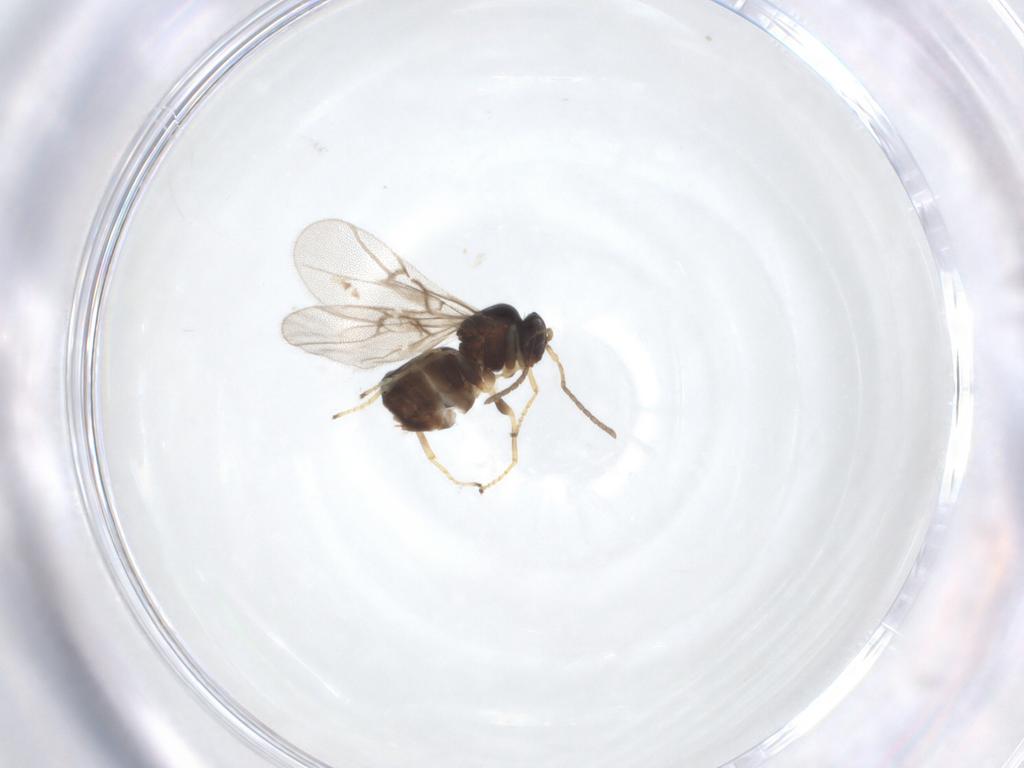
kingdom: Animalia
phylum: Arthropoda
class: Insecta
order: Hymenoptera
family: Cynipidae
